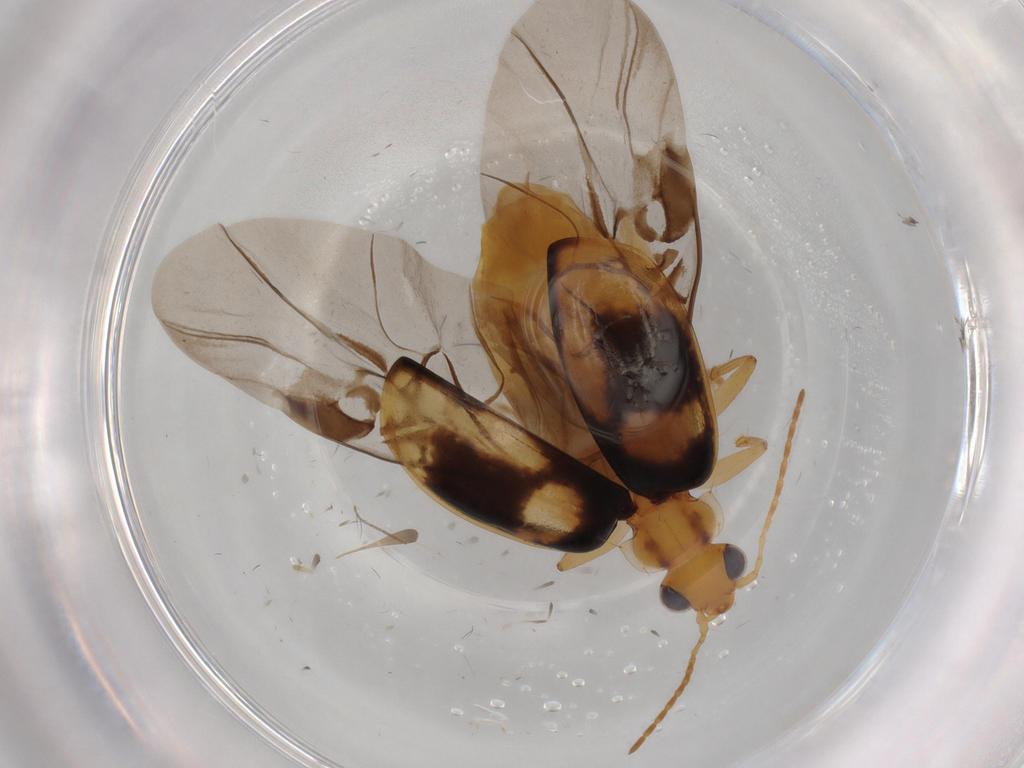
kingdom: Animalia
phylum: Arthropoda
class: Insecta
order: Coleoptera
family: Carabidae
